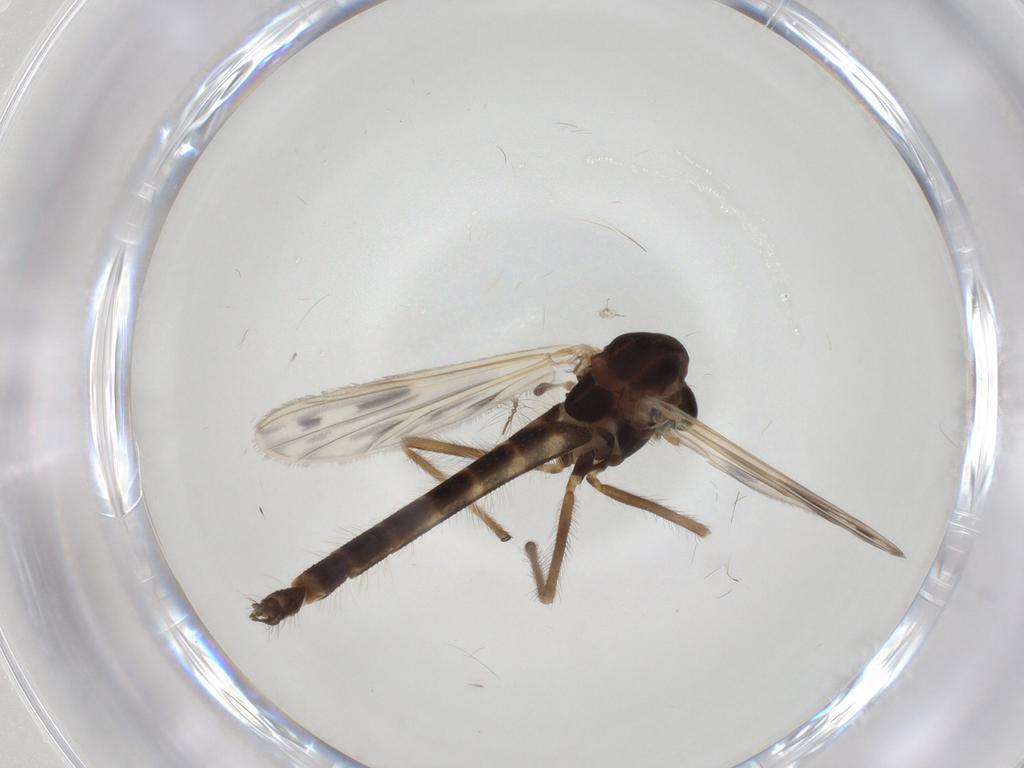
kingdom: Animalia
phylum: Arthropoda
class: Insecta
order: Diptera
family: Chironomidae
